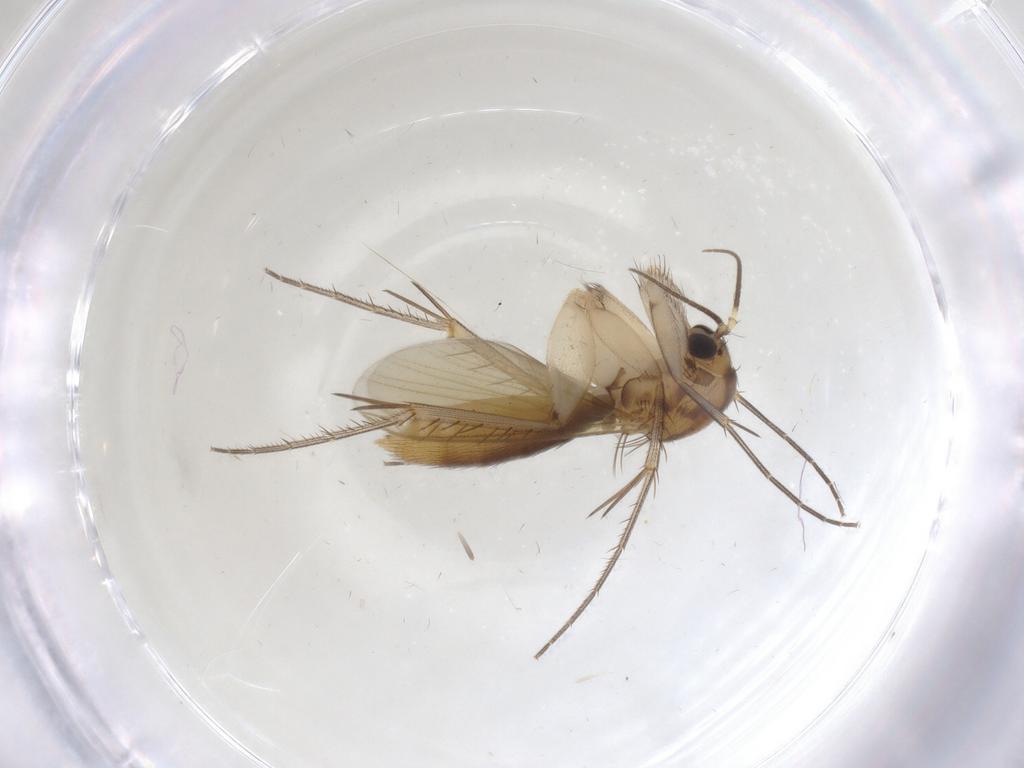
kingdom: Animalia
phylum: Arthropoda
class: Insecta
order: Diptera
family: Mycetophilidae
